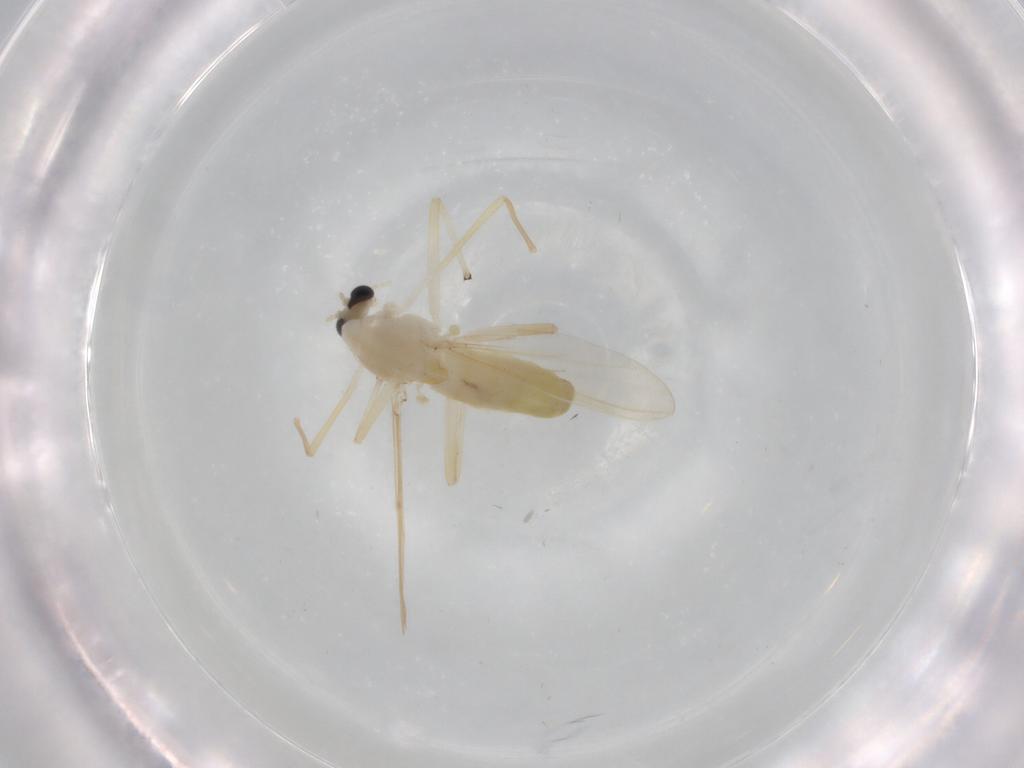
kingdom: Animalia
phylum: Arthropoda
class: Insecta
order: Diptera
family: Chironomidae
